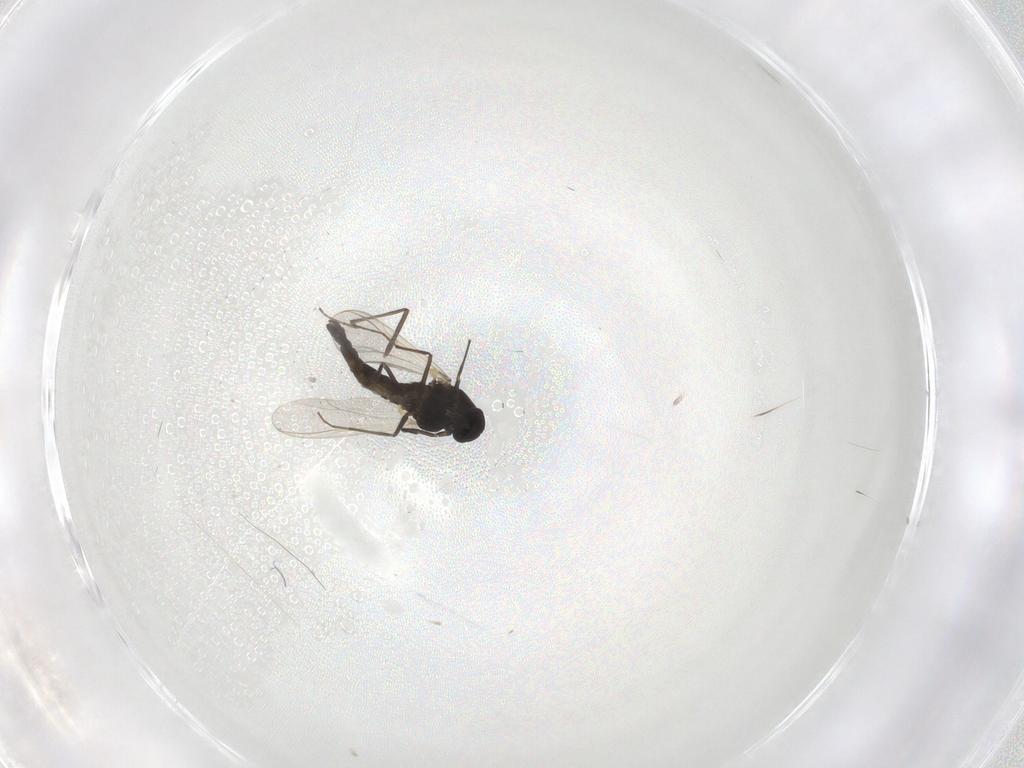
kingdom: Animalia
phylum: Arthropoda
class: Insecta
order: Diptera
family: Chironomidae
